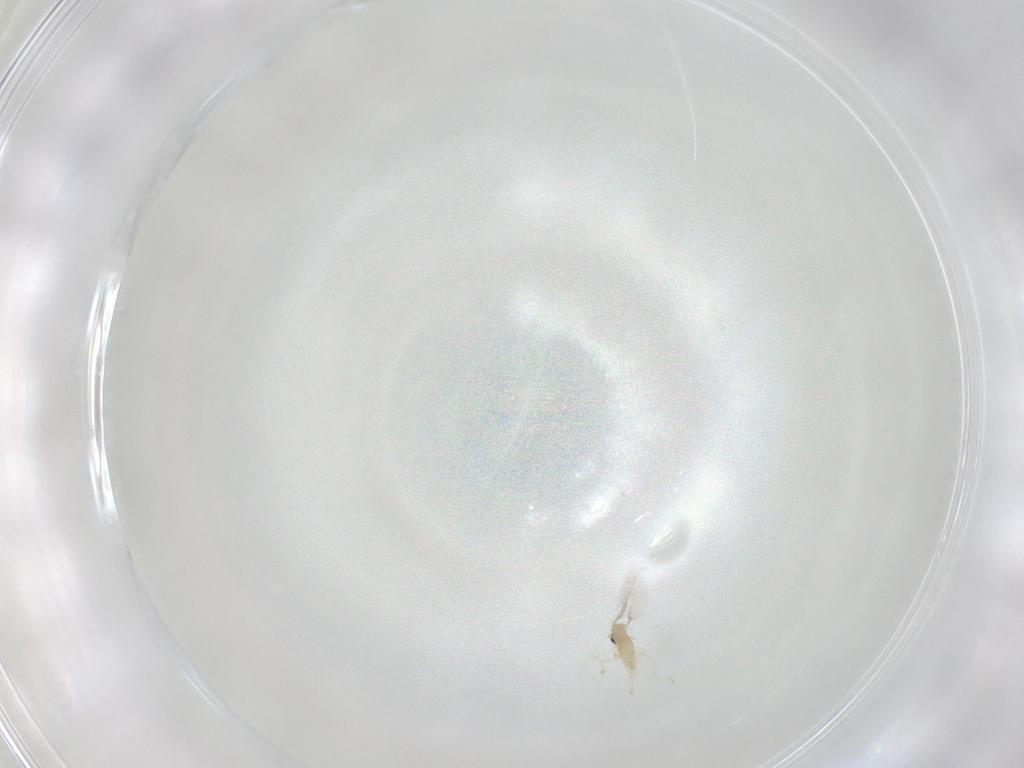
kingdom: Animalia
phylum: Arthropoda
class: Insecta
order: Diptera
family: Cecidomyiidae
